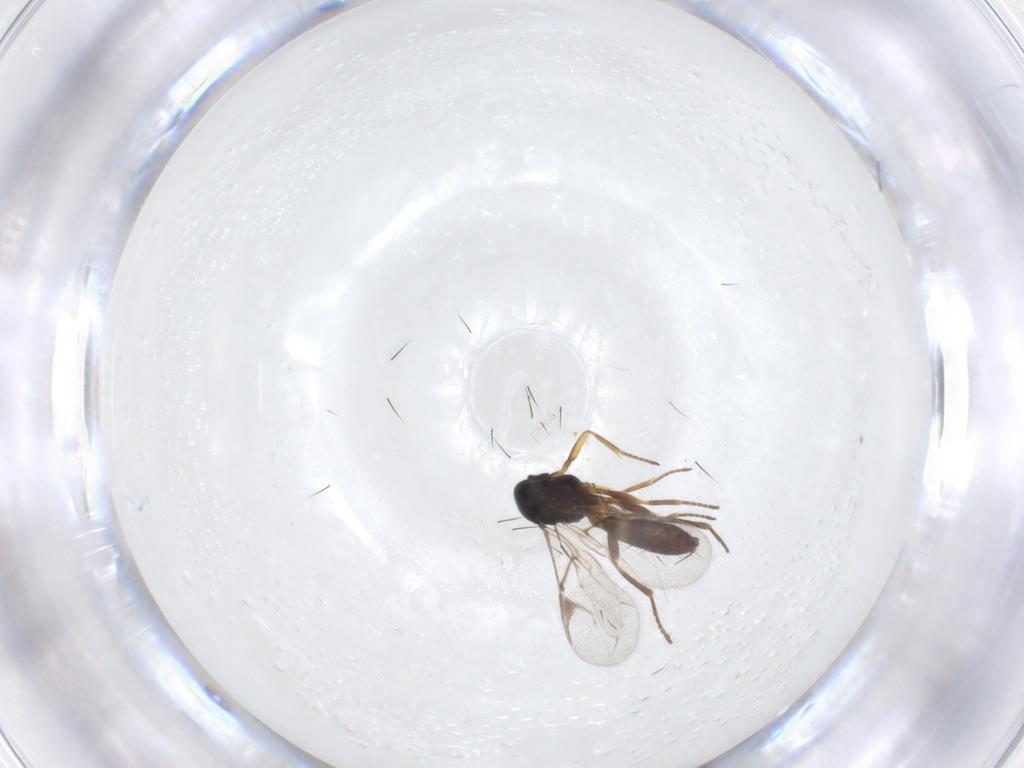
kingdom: Animalia
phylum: Arthropoda
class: Insecta
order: Hymenoptera
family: Braconidae
